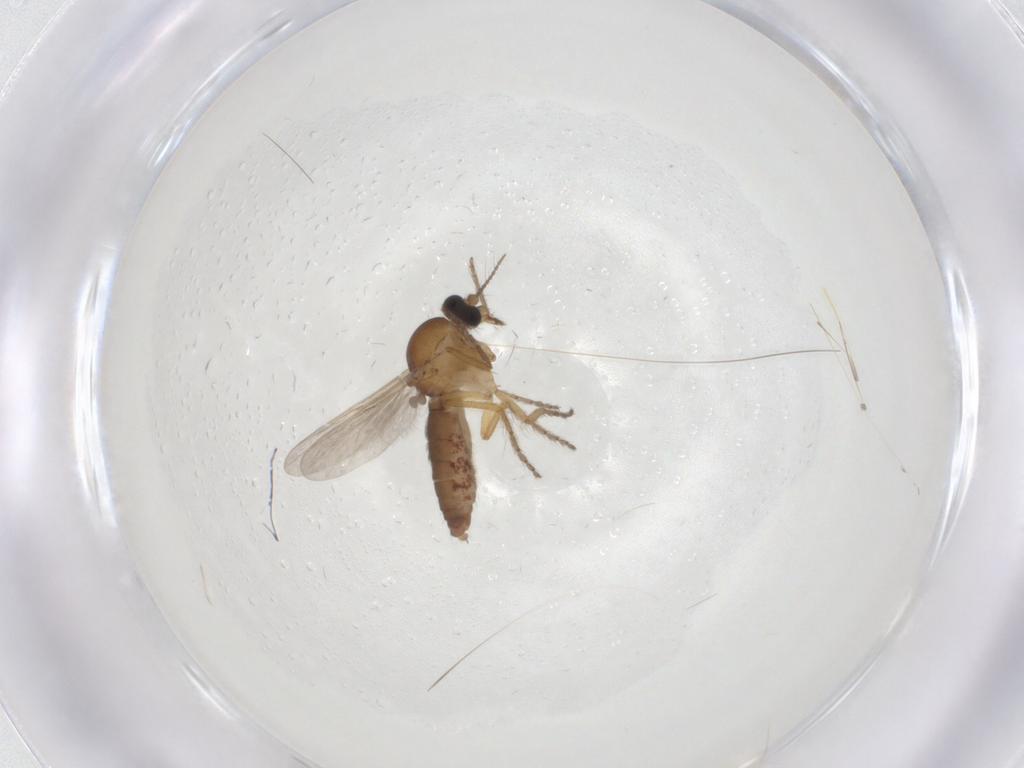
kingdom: Animalia
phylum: Arthropoda
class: Insecta
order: Diptera
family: Ceratopogonidae
